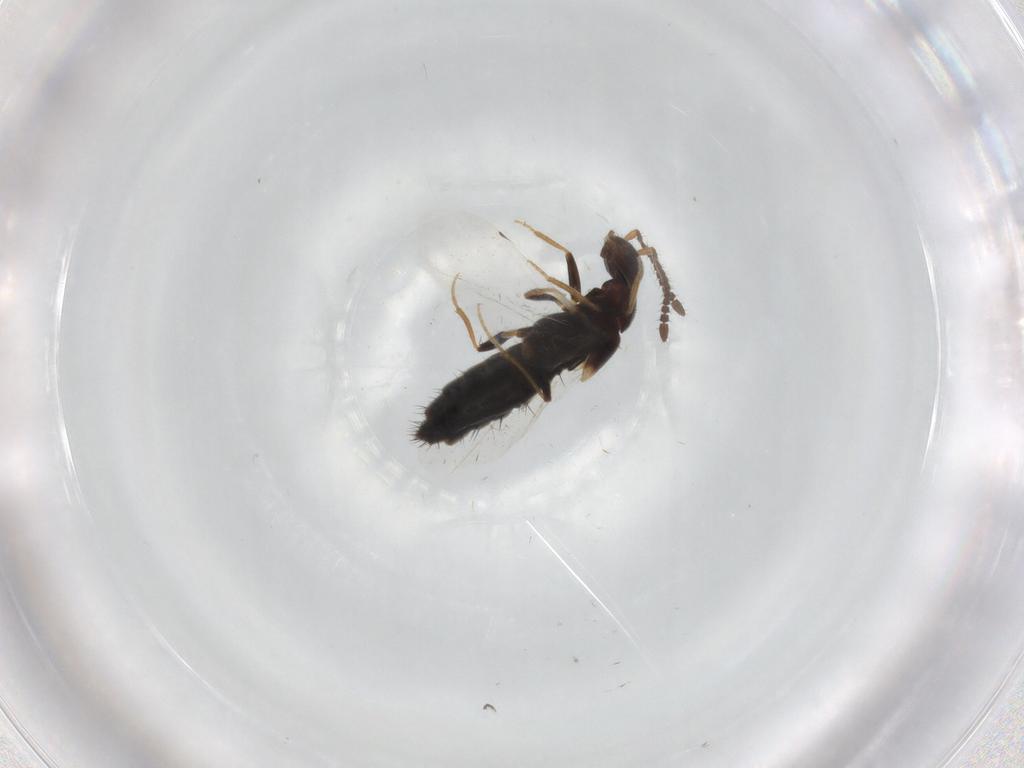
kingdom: Animalia
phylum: Arthropoda
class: Insecta
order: Coleoptera
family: Staphylinidae
